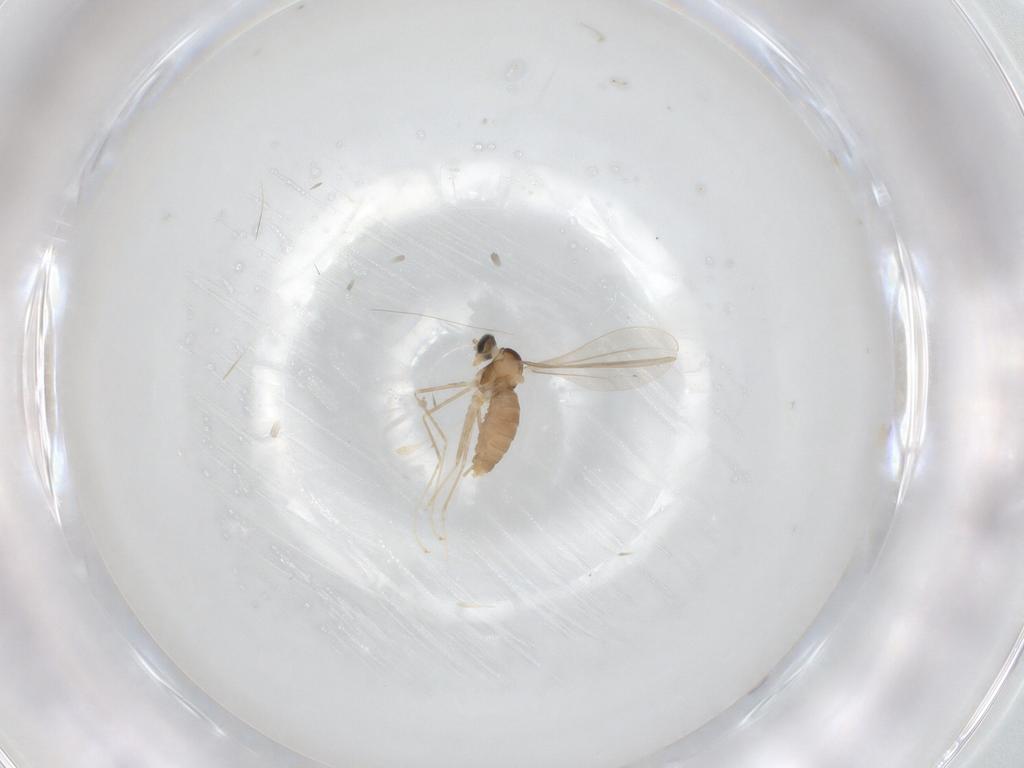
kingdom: Animalia
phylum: Arthropoda
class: Insecta
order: Diptera
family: Cecidomyiidae
